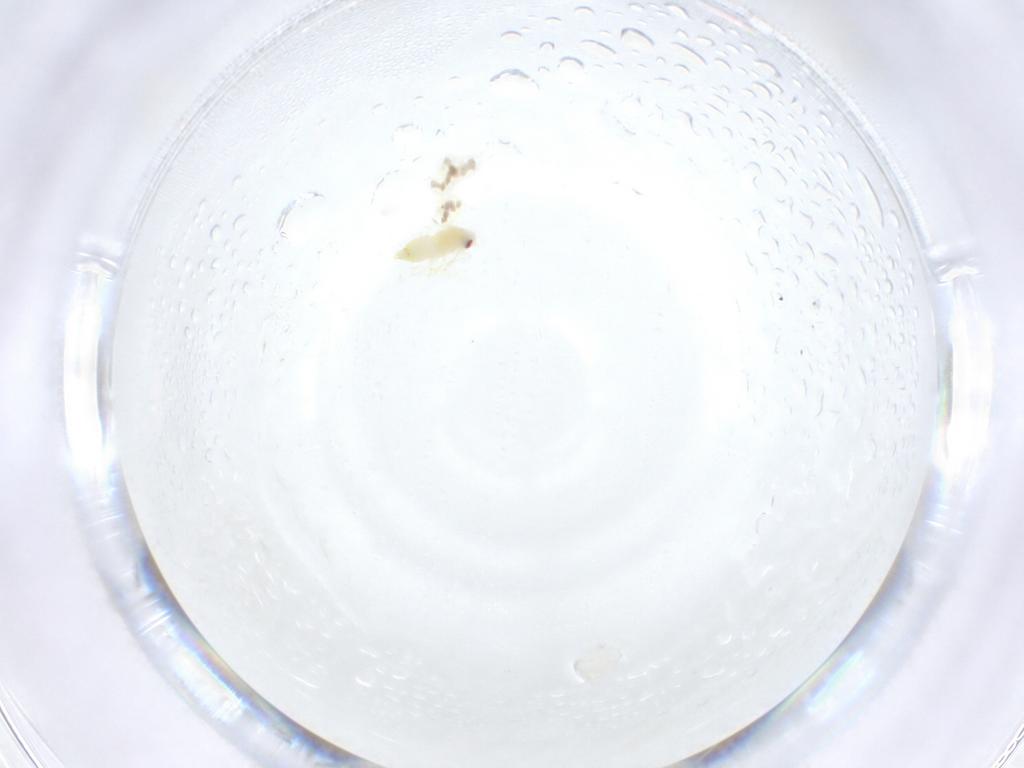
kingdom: Animalia
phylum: Arthropoda
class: Insecta
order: Hemiptera
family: Aleyrodidae
